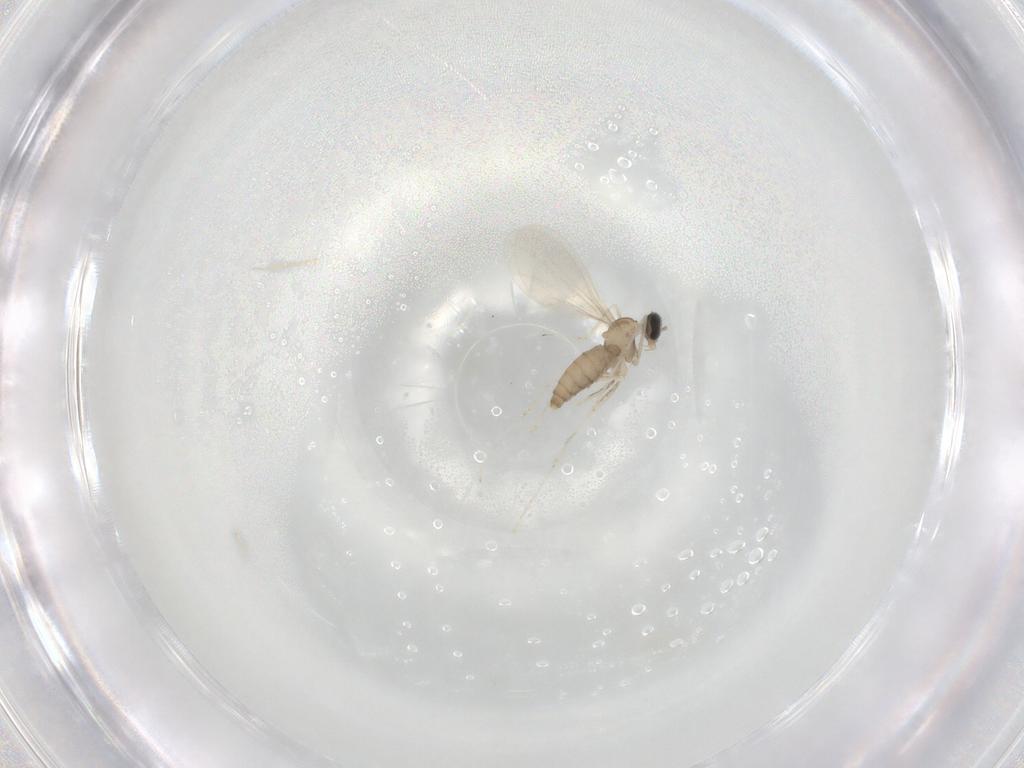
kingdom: Animalia
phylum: Arthropoda
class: Insecta
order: Diptera
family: Cecidomyiidae
